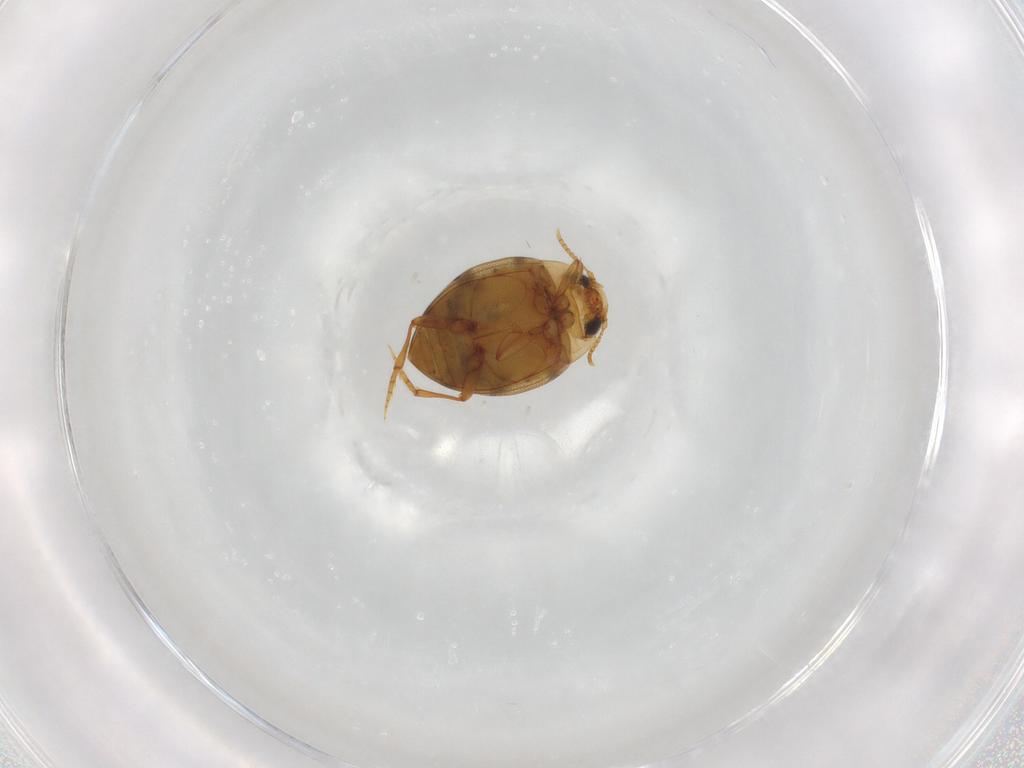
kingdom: Animalia
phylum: Arthropoda
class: Insecta
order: Coleoptera
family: Dytiscidae
